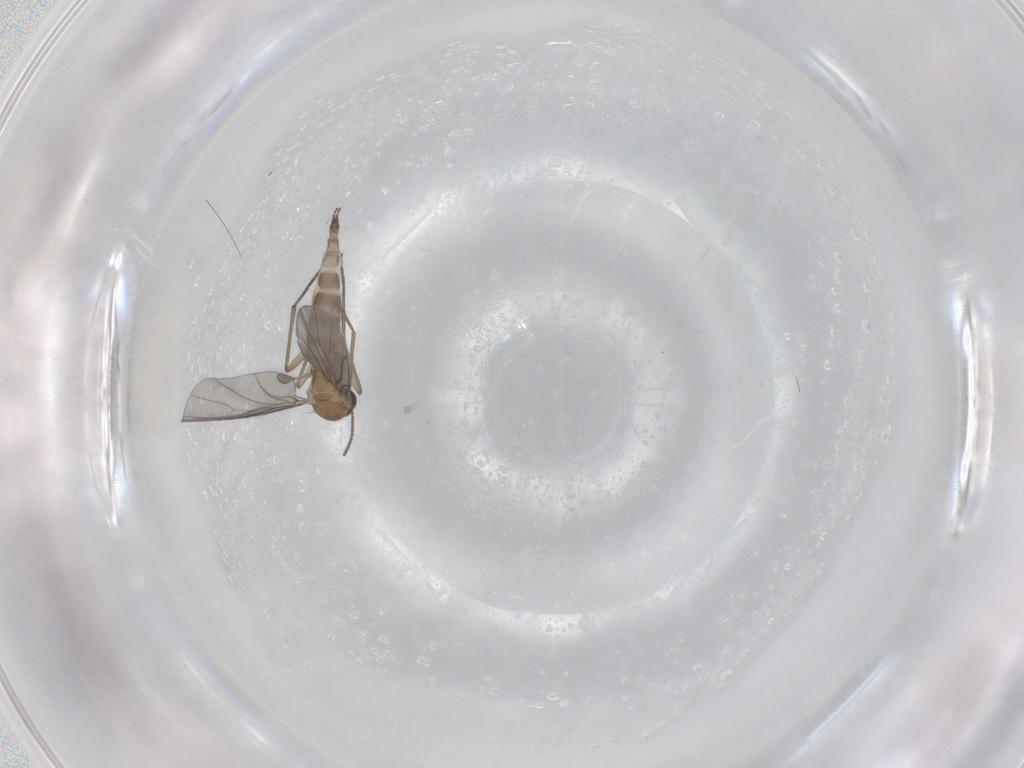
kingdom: Animalia
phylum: Arthropoda
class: Insecta
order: Diptera
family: Sciaridae
